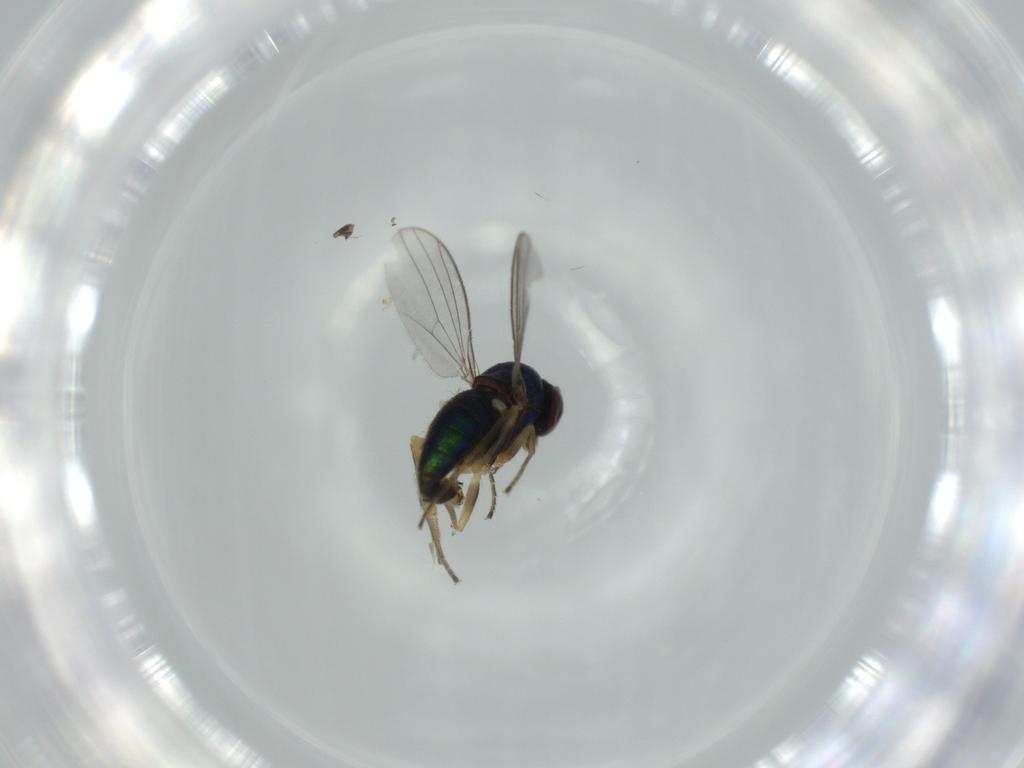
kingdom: Animalia
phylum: Arthropoda
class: Insecta
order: Diptera
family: Dolichopodidae
